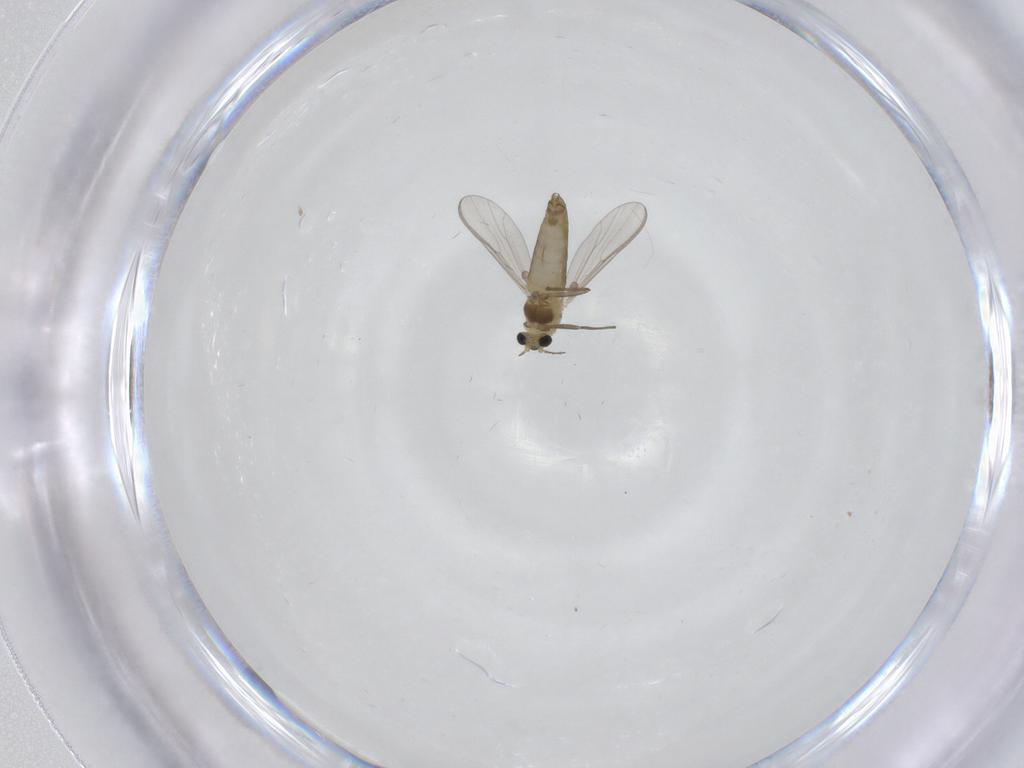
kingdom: Animalia
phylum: Arthropoda
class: Insecta
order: Diptera
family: Chironomidae
